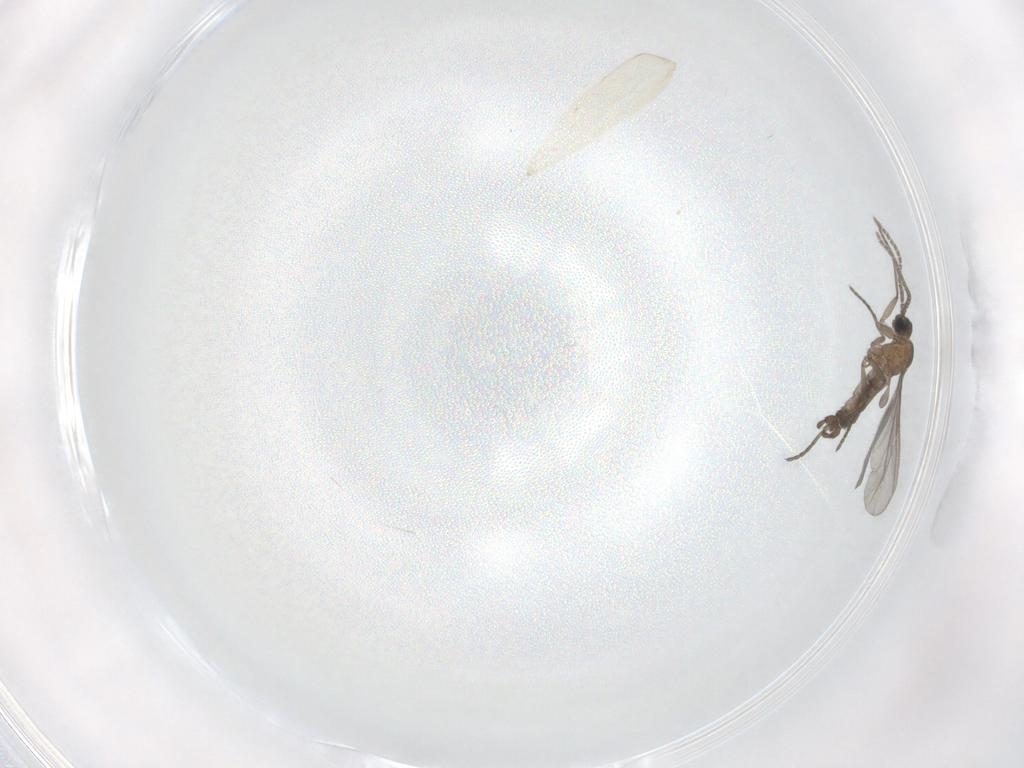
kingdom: Animalia
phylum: Arthropoda
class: Insecta
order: Diptera
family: Sciaridae
